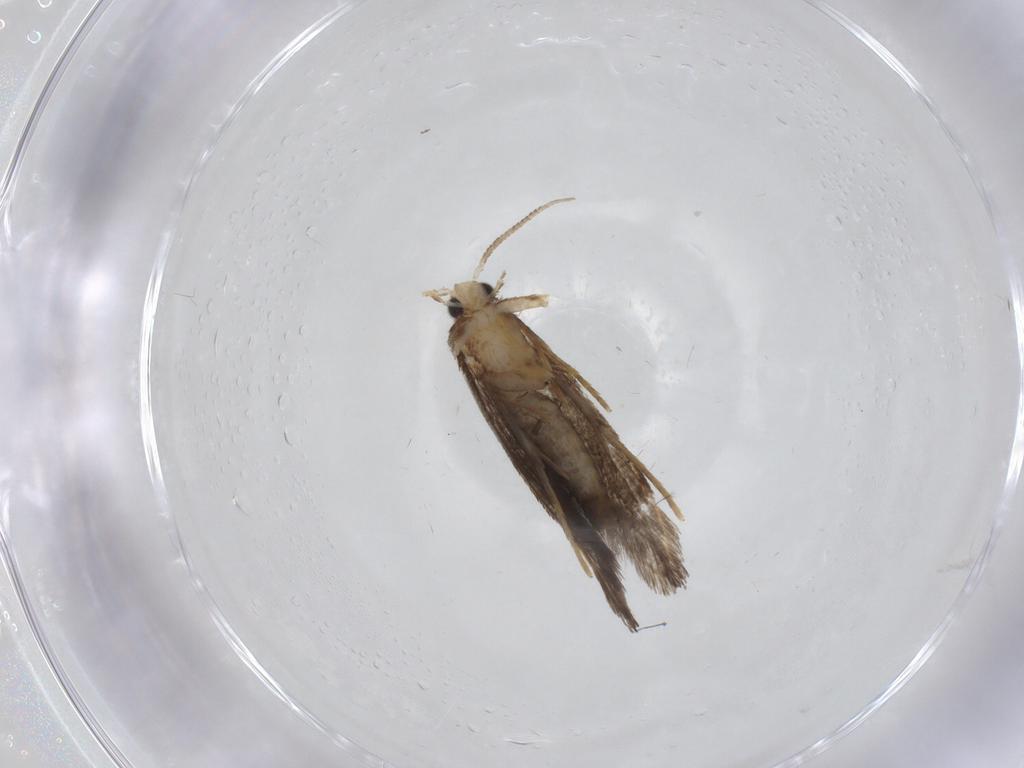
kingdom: Animalia
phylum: Arthropoda
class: Insecta
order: Lepidoptera
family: Tineidae
